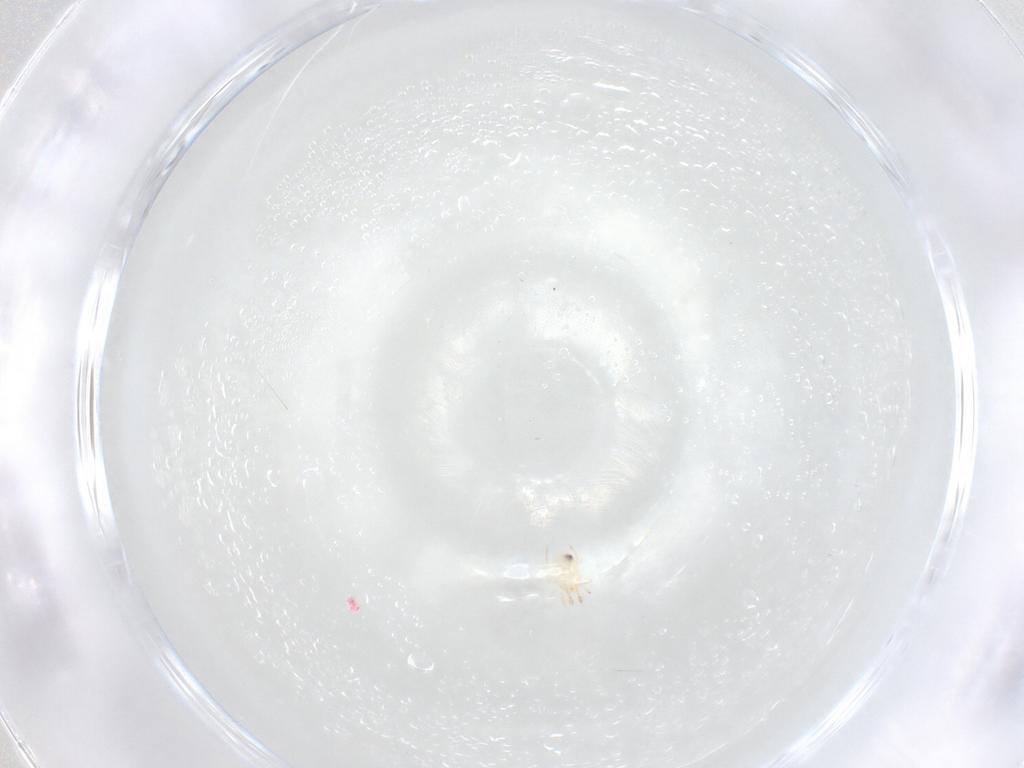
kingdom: Animalia
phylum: Arthropoda
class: Arachnida
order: Mesostigmata
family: Phytoseiidae
